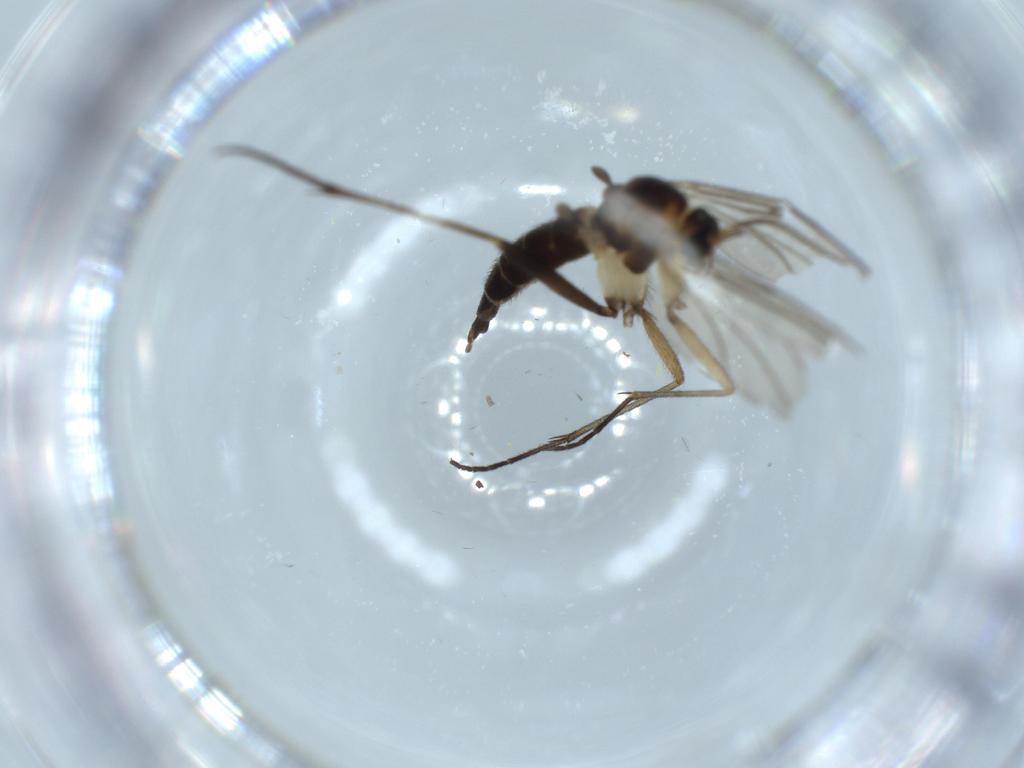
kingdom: Animalia
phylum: Arthropoda
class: Insecta
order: Diptera
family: Sciaridae
